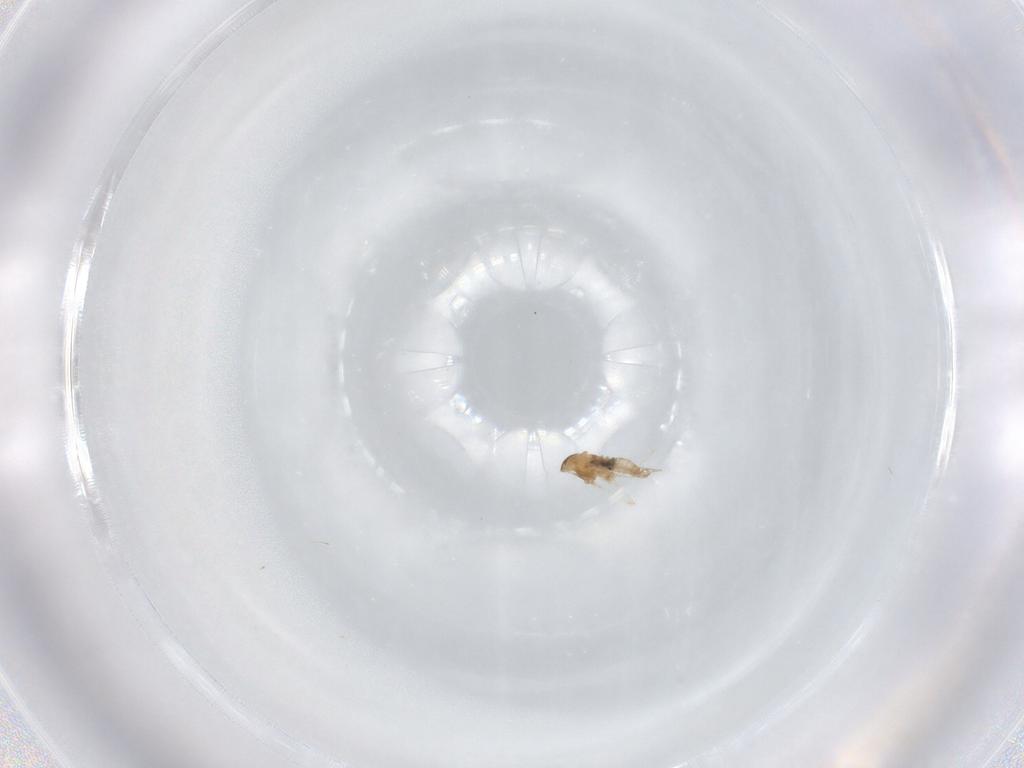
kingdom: Animalia
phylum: Arthropoda
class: Insecta
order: Diptera
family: Cecidomyiidae
